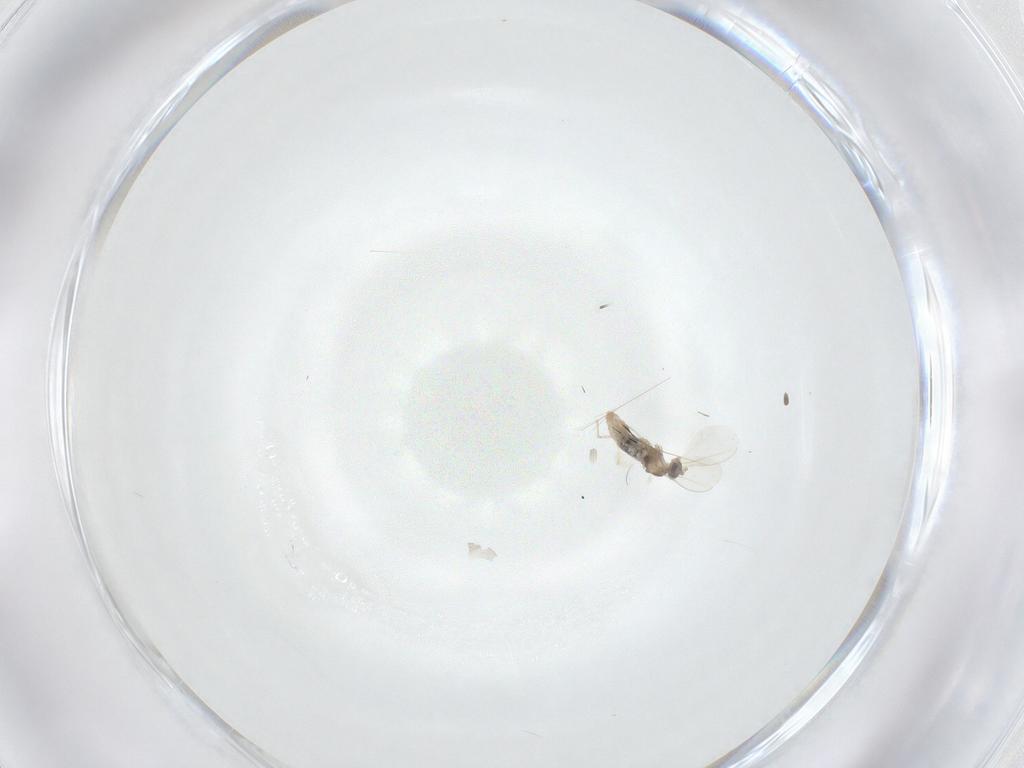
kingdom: Animalia
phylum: Arthropoda
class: Insecta
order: Diptera
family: Cecidomyiidae
